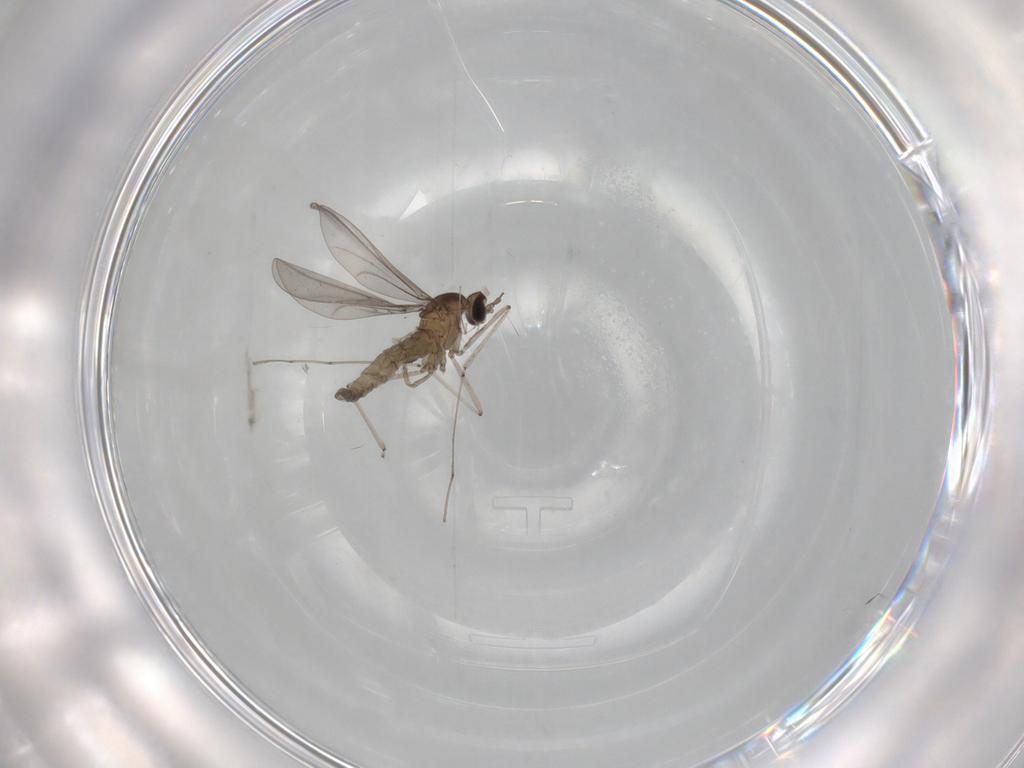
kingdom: Animalia
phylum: Arthropoda
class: Insecta
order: Diptera
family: Cecidomyiidae
